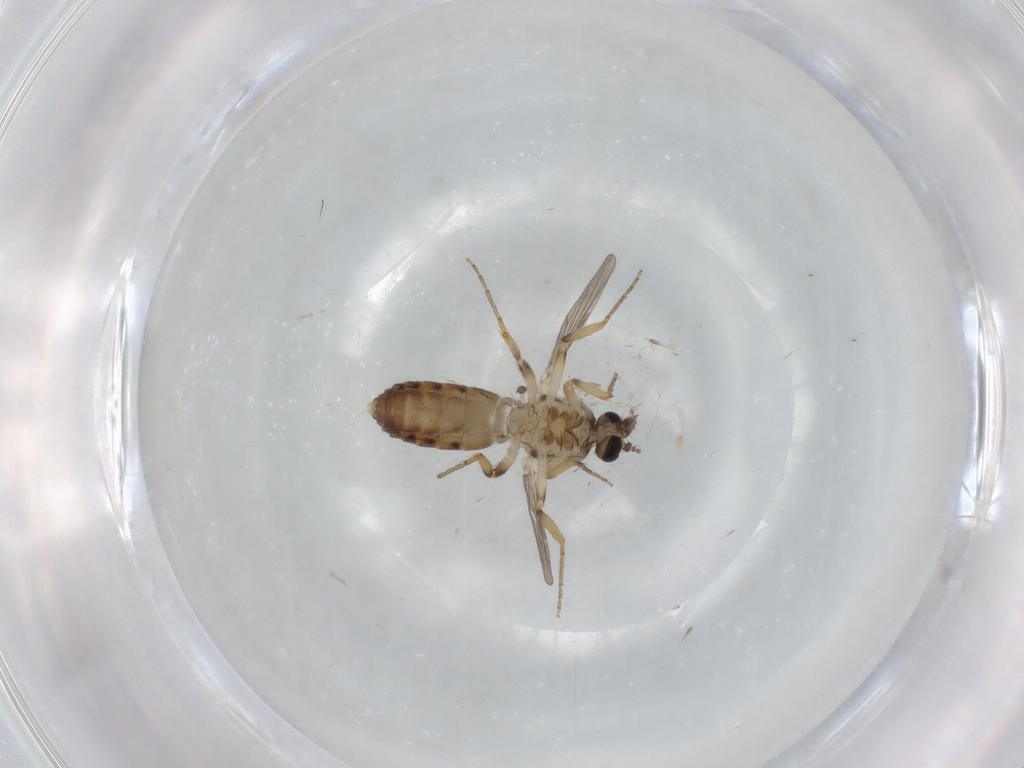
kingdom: Animalia
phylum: Arthropoda
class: Insecta
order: Diptera
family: Ceratopogonidae
